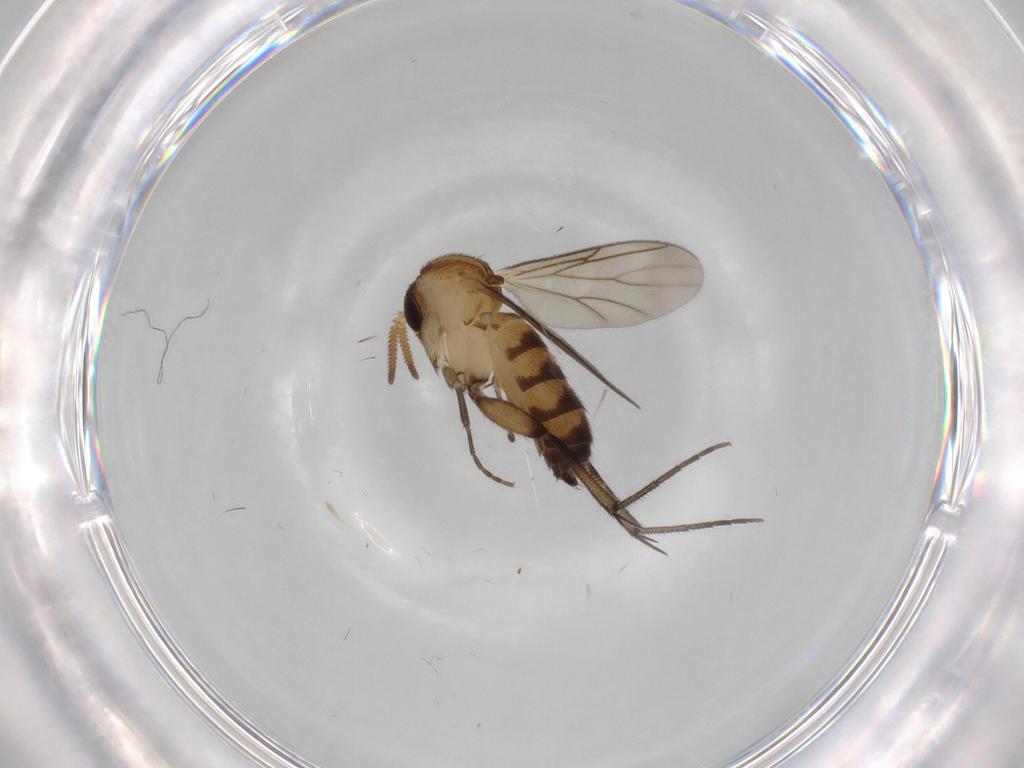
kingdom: Animalia
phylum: Arthropoda
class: Insecta
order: Diptera
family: Mycetophilidae
